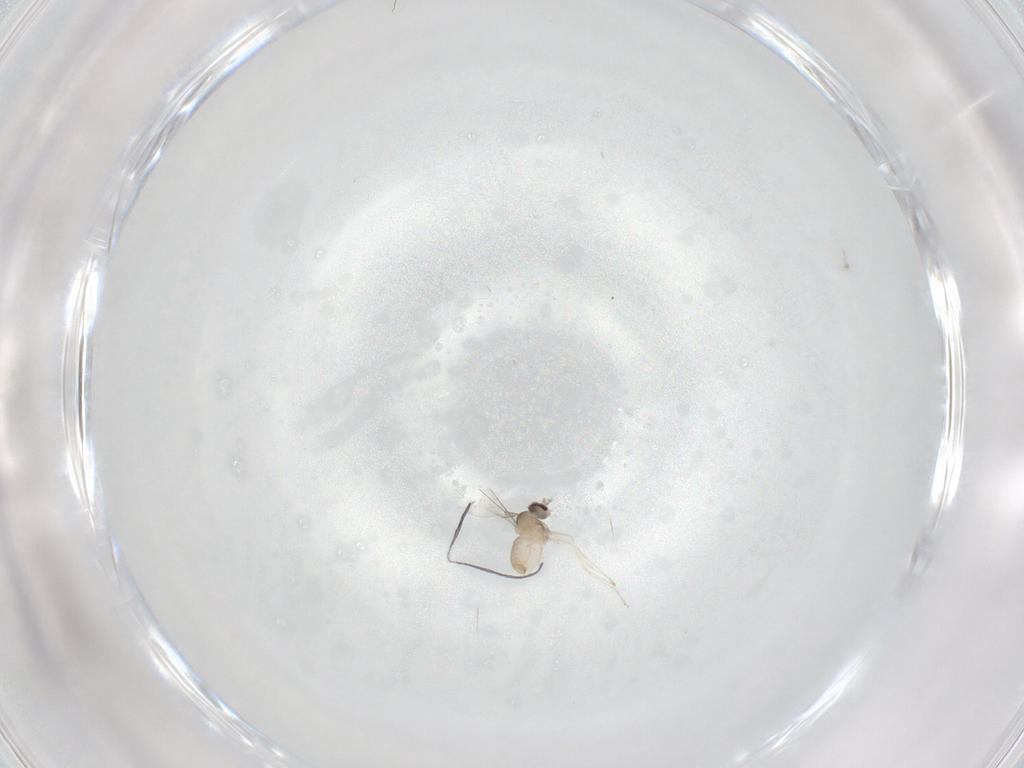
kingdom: Animalia
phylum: Arthropoda
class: Insecta
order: Diptera
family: Cecidomyiidae
